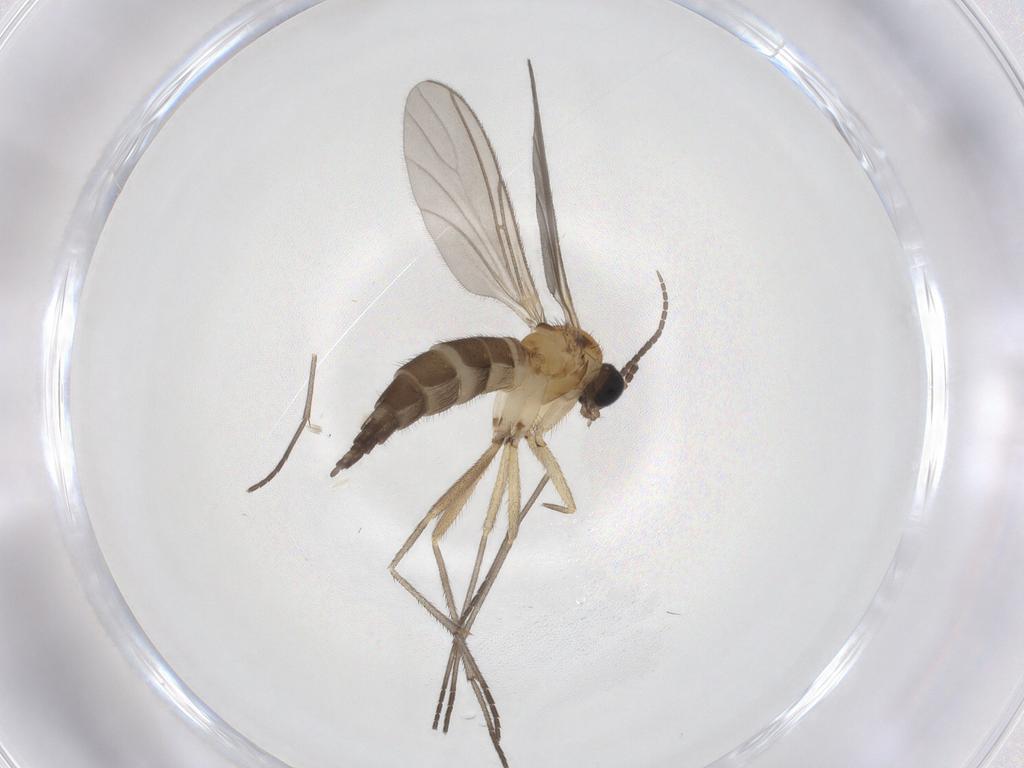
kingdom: Animalia
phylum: Arthropoda
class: Insecta
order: Diptera
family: Sciaridae
